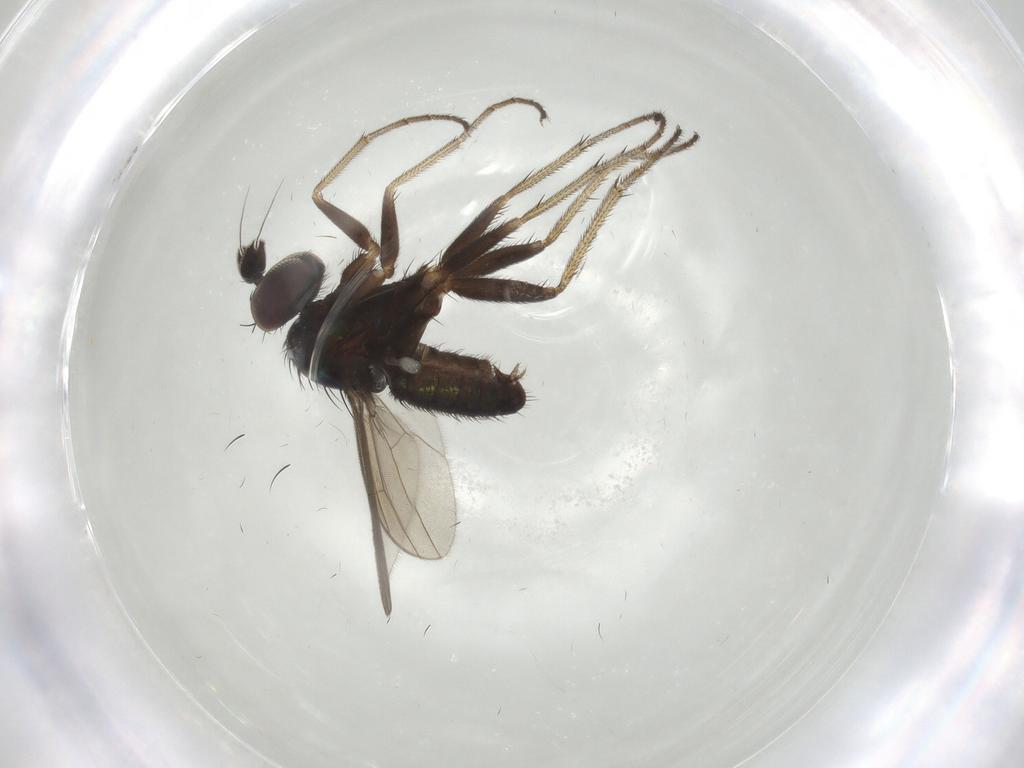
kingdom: Animalia
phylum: Arthropoda
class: Insecta
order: Diptera
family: Dolichopodidae
